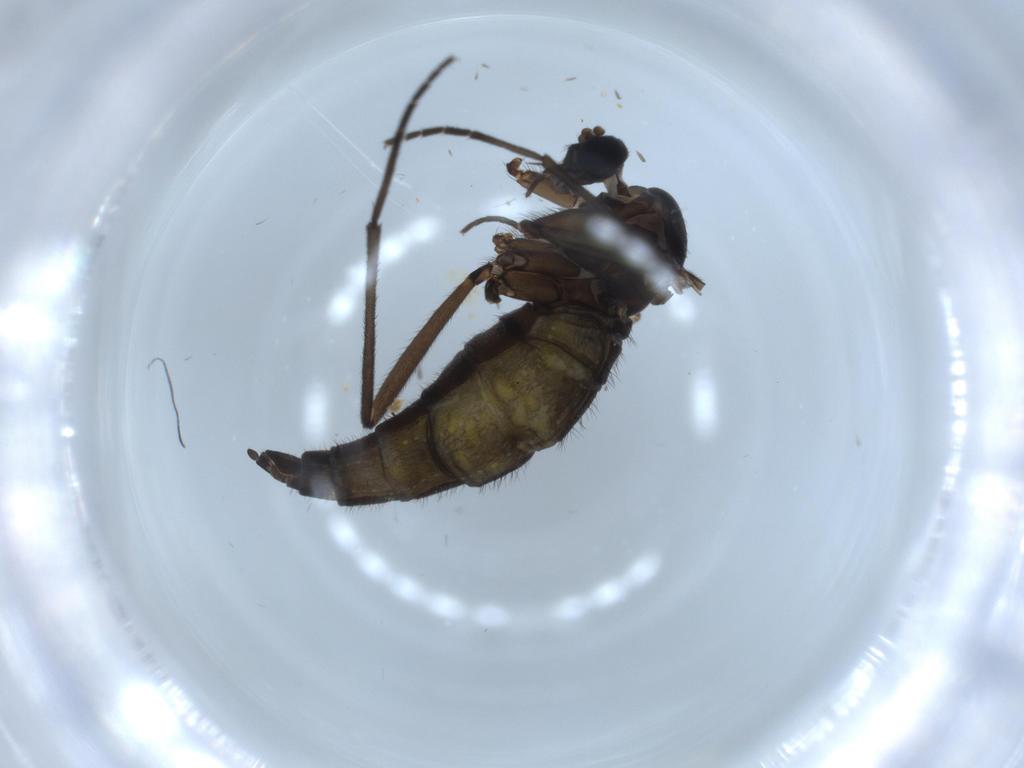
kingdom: Animalia
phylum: Arthropoda
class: Insecta
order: Diptera
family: Sciaridae
